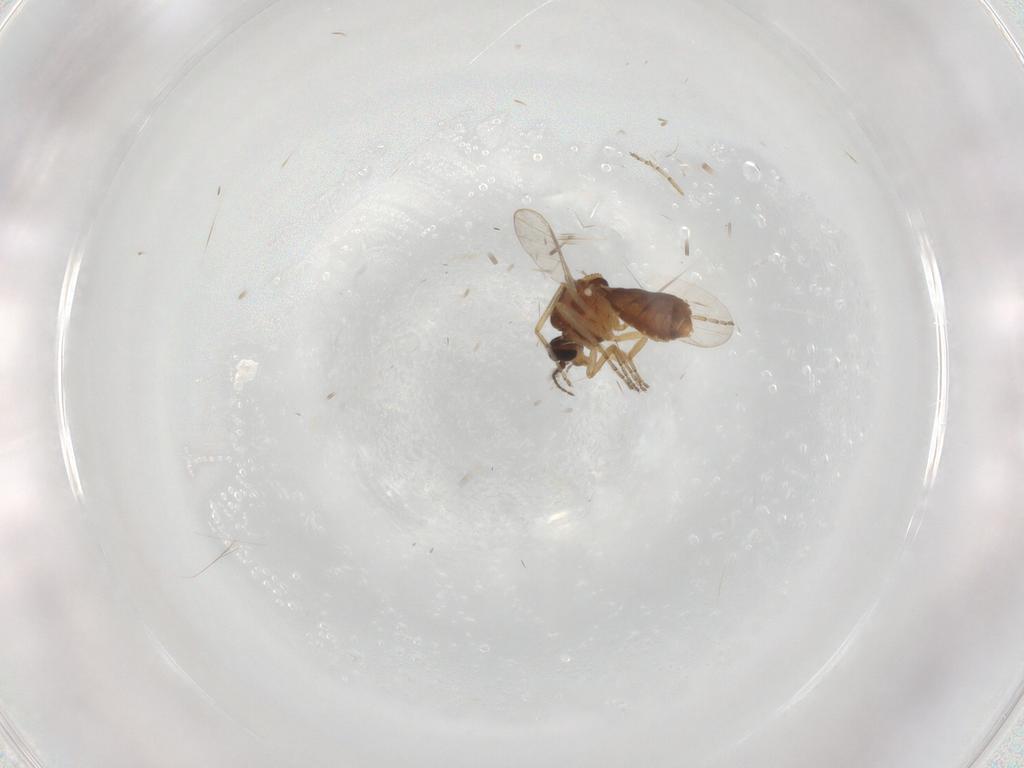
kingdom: Animalia
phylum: Arthropoda
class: Insecta
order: Diptera
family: Ceratopogonidae
